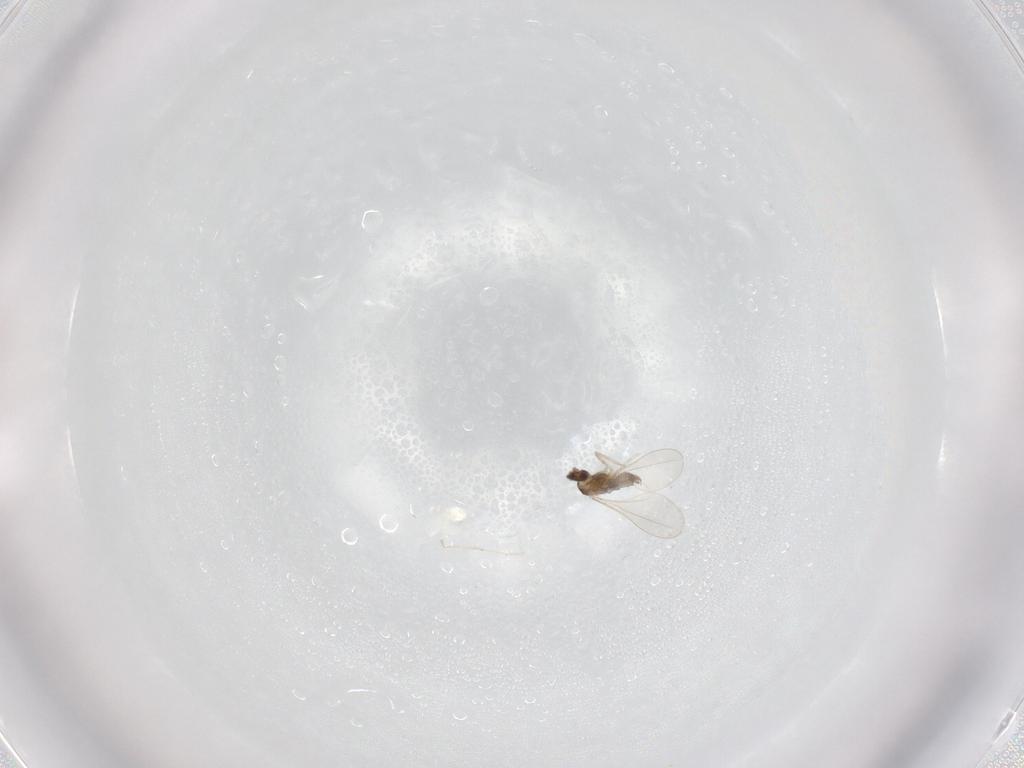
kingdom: Animalia
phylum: Arthropoda
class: Insecta
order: Diptera
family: Cecidomyiidae
